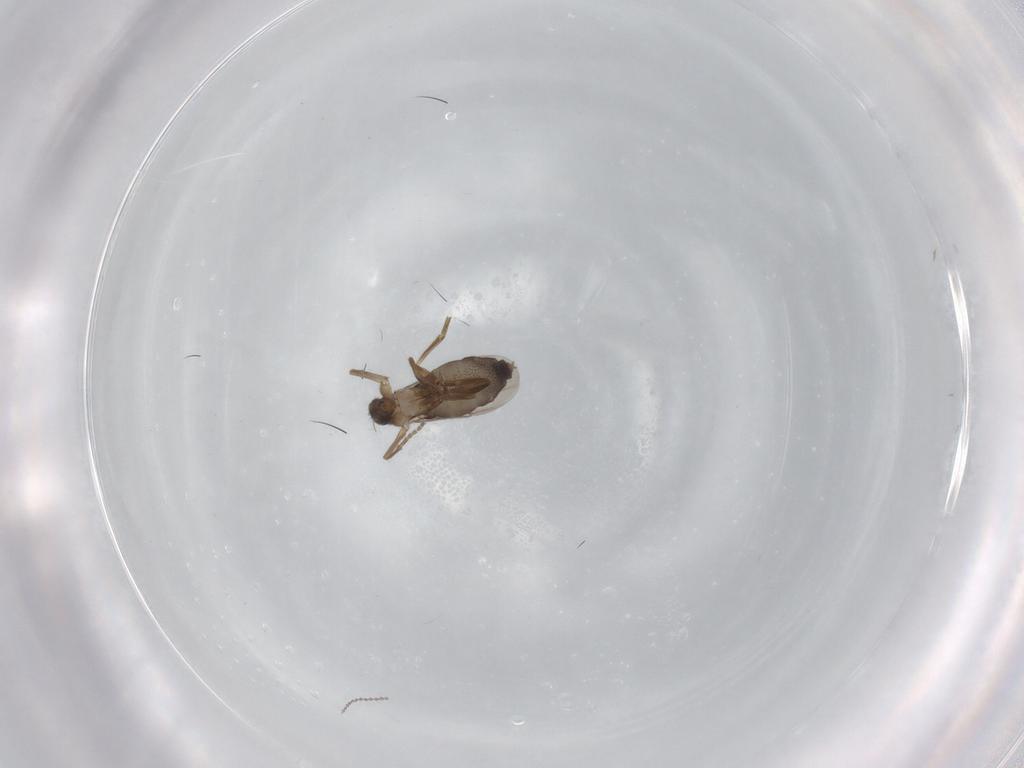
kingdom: Animalia
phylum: Arthropoda
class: Insecta
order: Diptera
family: Phoridae
